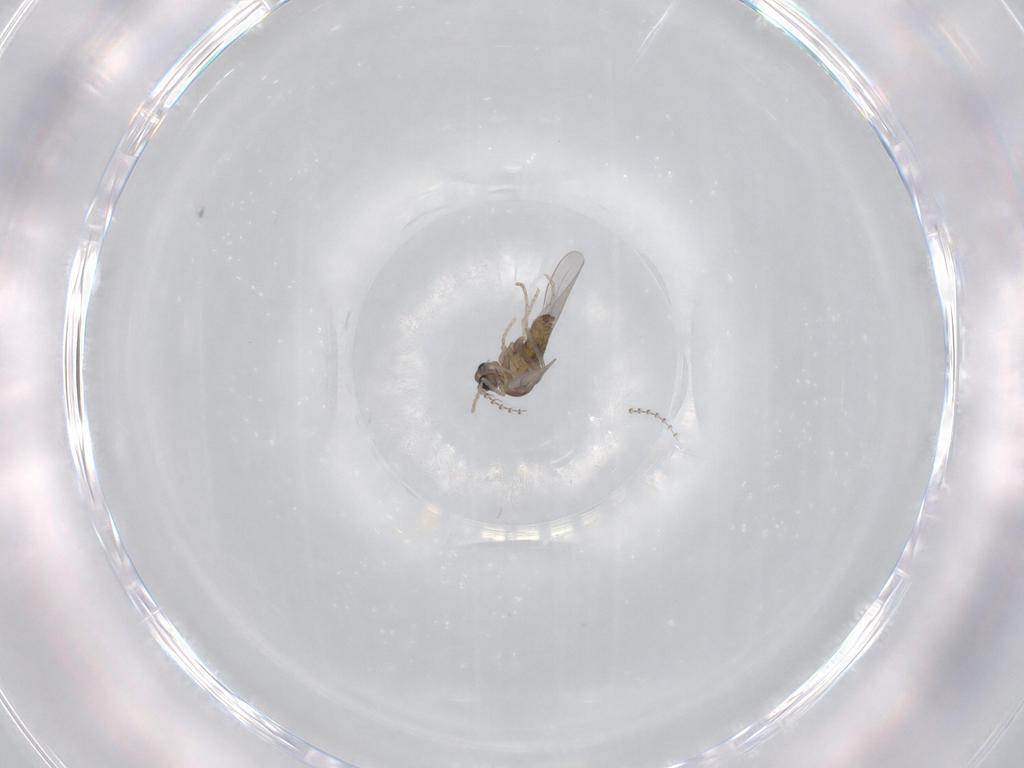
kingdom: Animalia
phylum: Arthropoda
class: Insecta
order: Diptera
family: Cecidomyiidae
